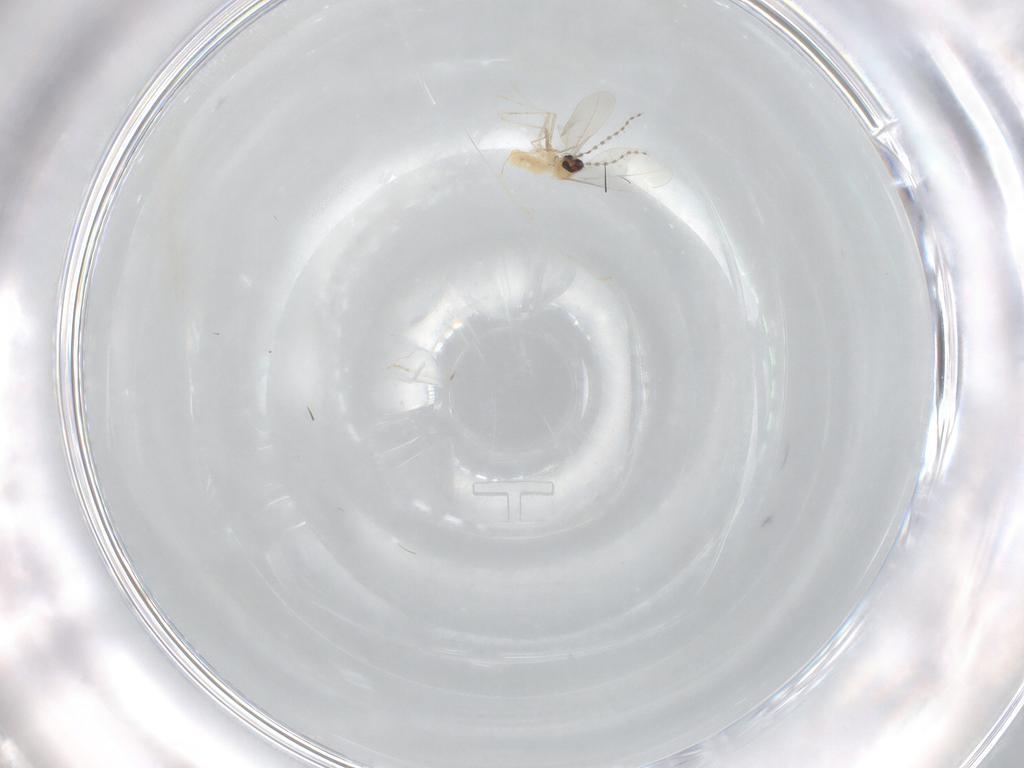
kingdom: Animalia
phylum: Arthropoda
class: Insecta
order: Diptera
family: Cecidomyiidae
